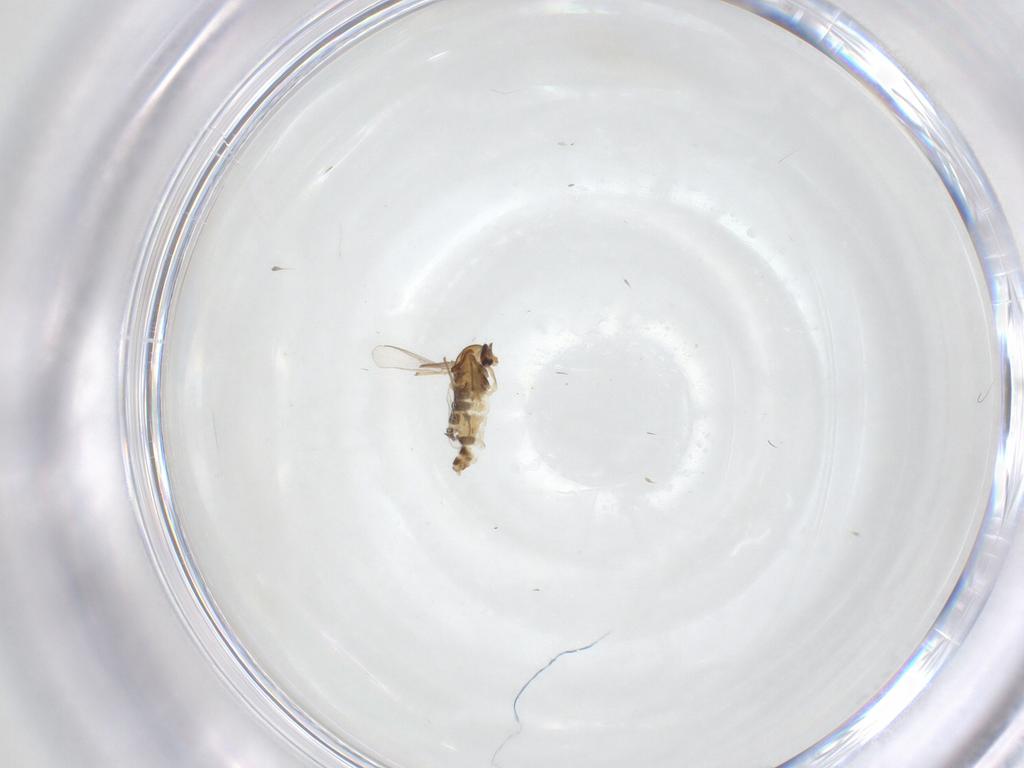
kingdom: Animalia
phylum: Arthropoda
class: Insecta
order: Diptera
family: Chironomidae
